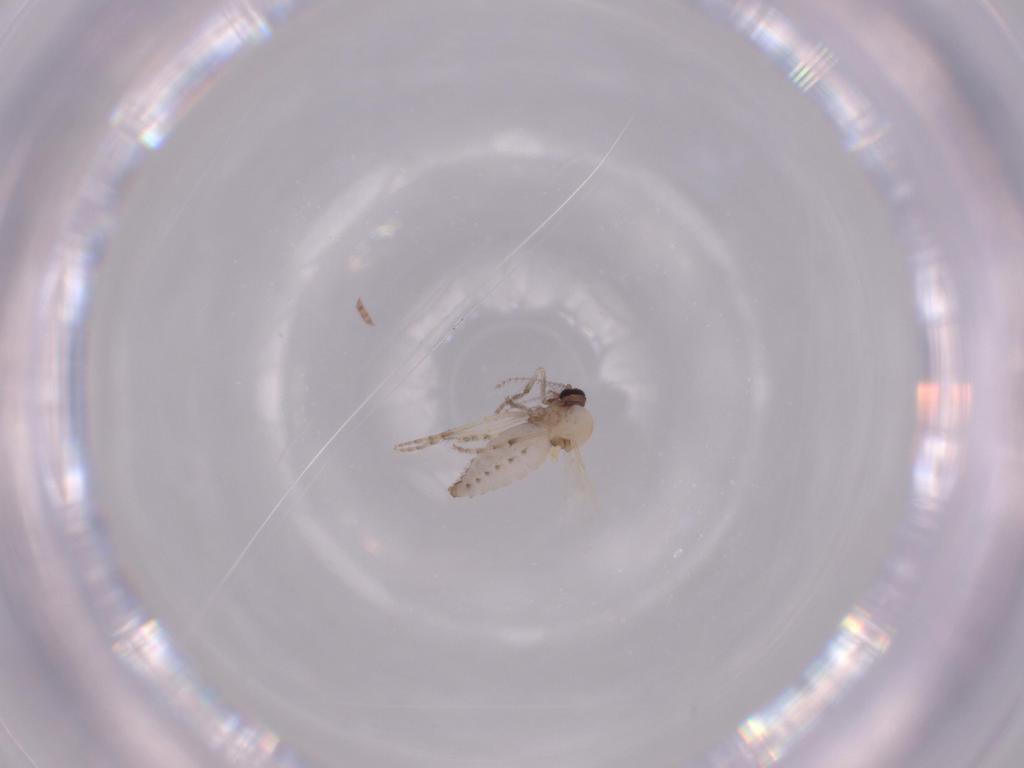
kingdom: Animalia
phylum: Arthropoda
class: Insecta
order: Diptera
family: Ceratopogonidae
